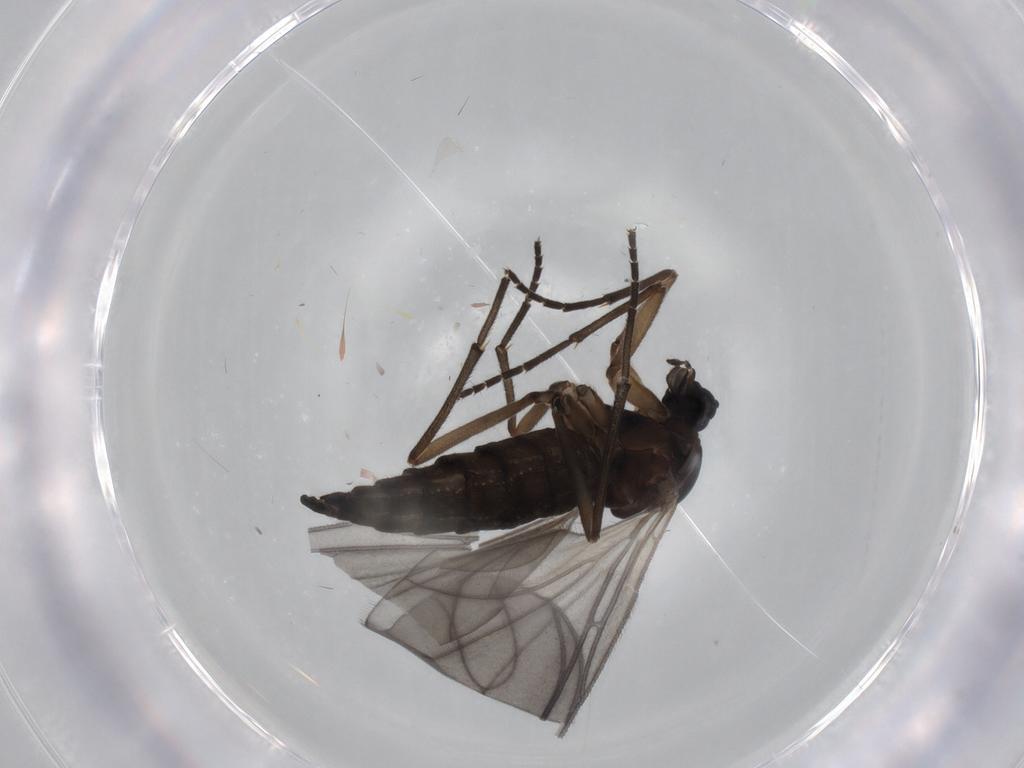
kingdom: Animalia
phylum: Arthropoda
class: Insecta
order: Diptera
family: Sciaridae
